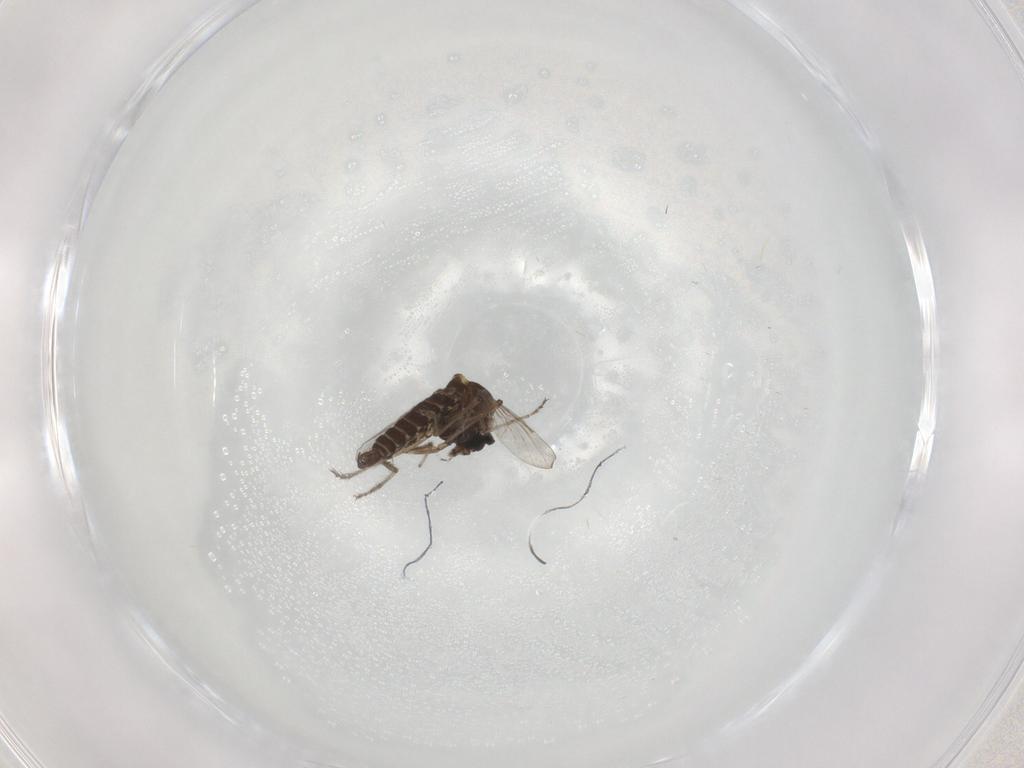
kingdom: Animalia
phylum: Arthropoda
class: Insecta
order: Diptera
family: Ceratopogonidae
